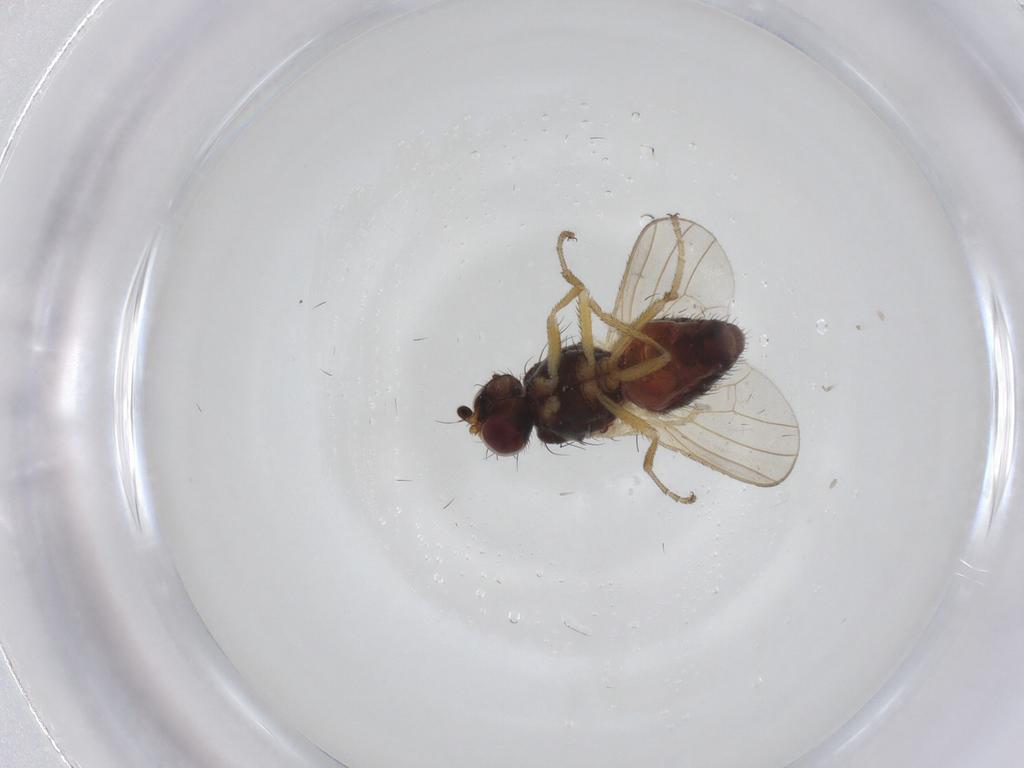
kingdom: Animalia
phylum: Arthropoda
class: Insecta
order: Diptera
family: Heleomyzidae
